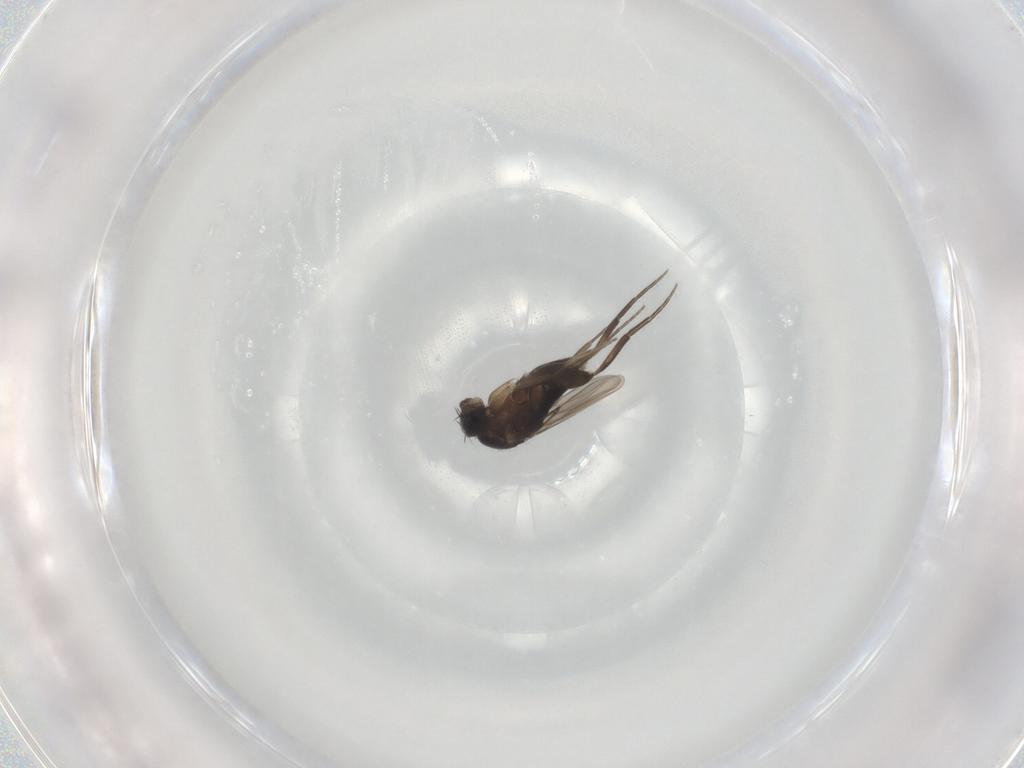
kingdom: Animalia
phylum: Arthropoda
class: Insecta
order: Diptera
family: Phoridae
